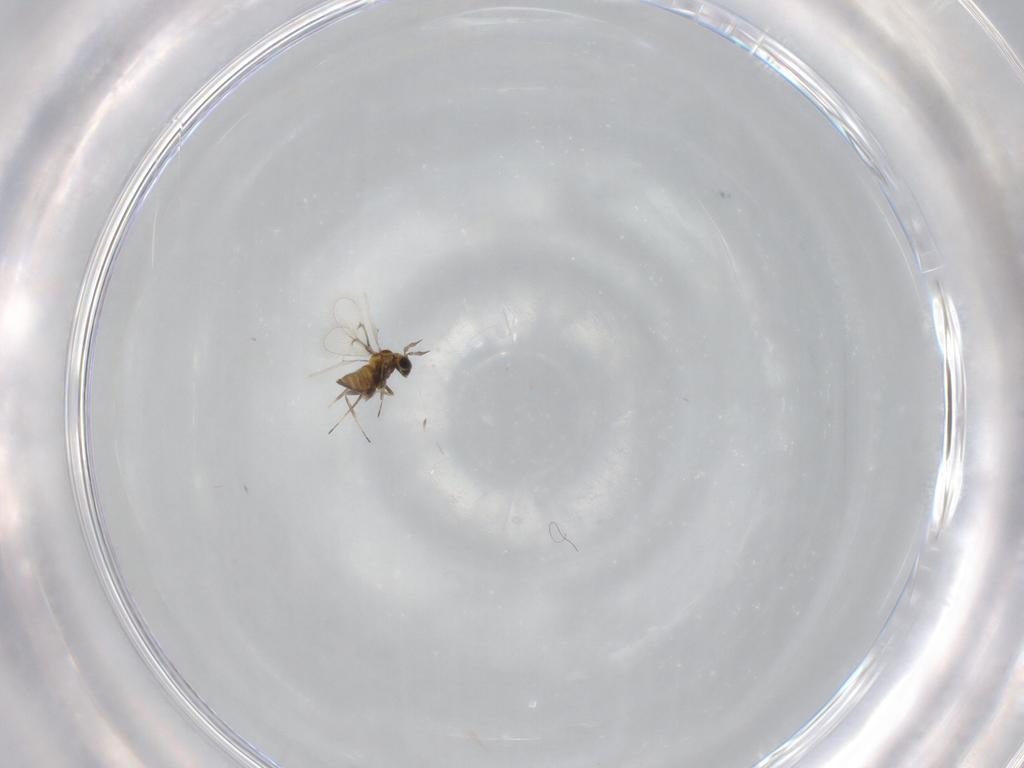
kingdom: Animalia
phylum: Arthropoda
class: Insecta
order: Hymenoptera
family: Trichogrammatidae
